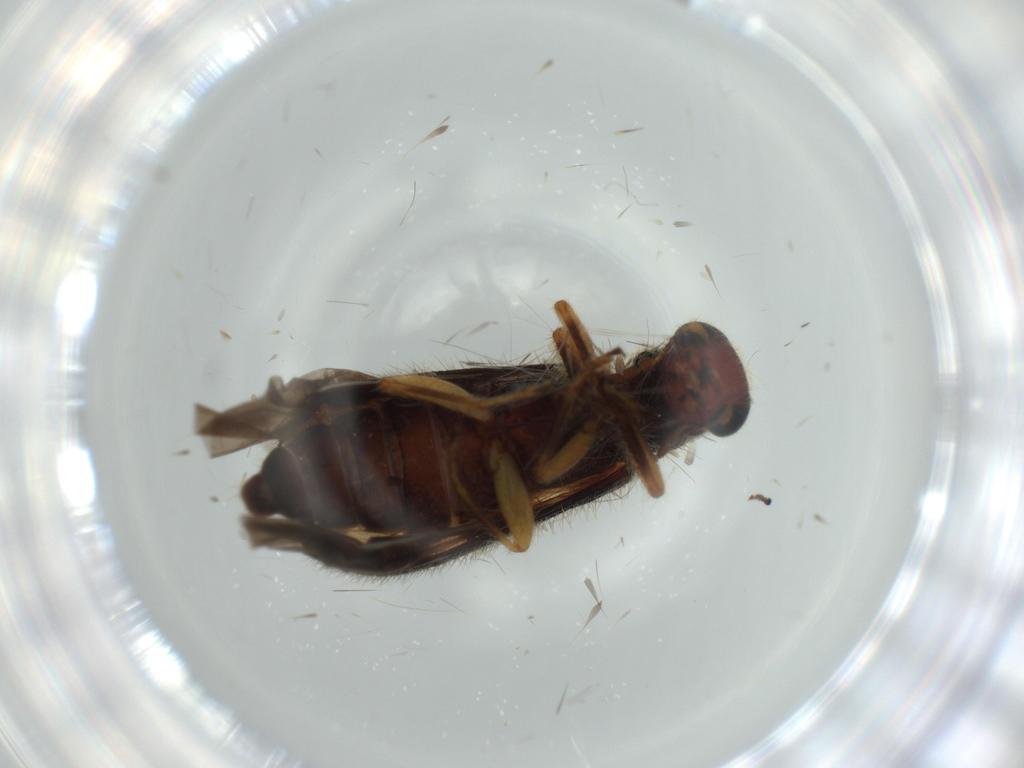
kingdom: Animalia
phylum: Arthropoda
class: Insecta
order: Coleoptera
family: Cleridae
